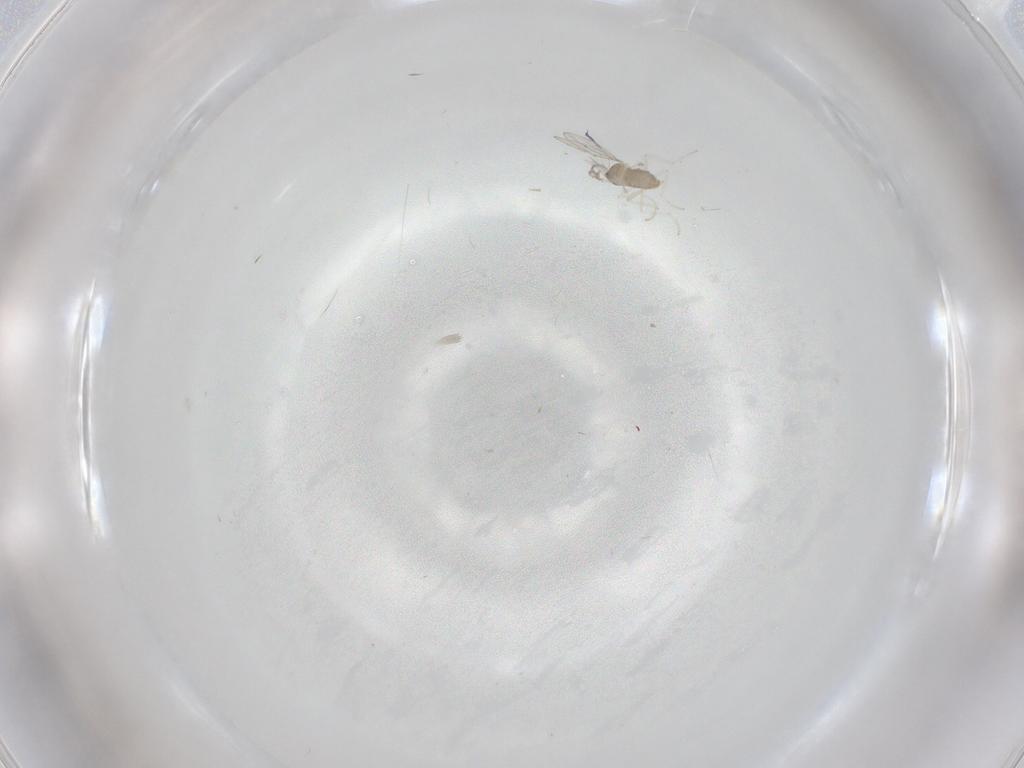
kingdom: Animalia
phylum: Arthropoda
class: Insecta
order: Diptera
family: Cecidomyiidae
